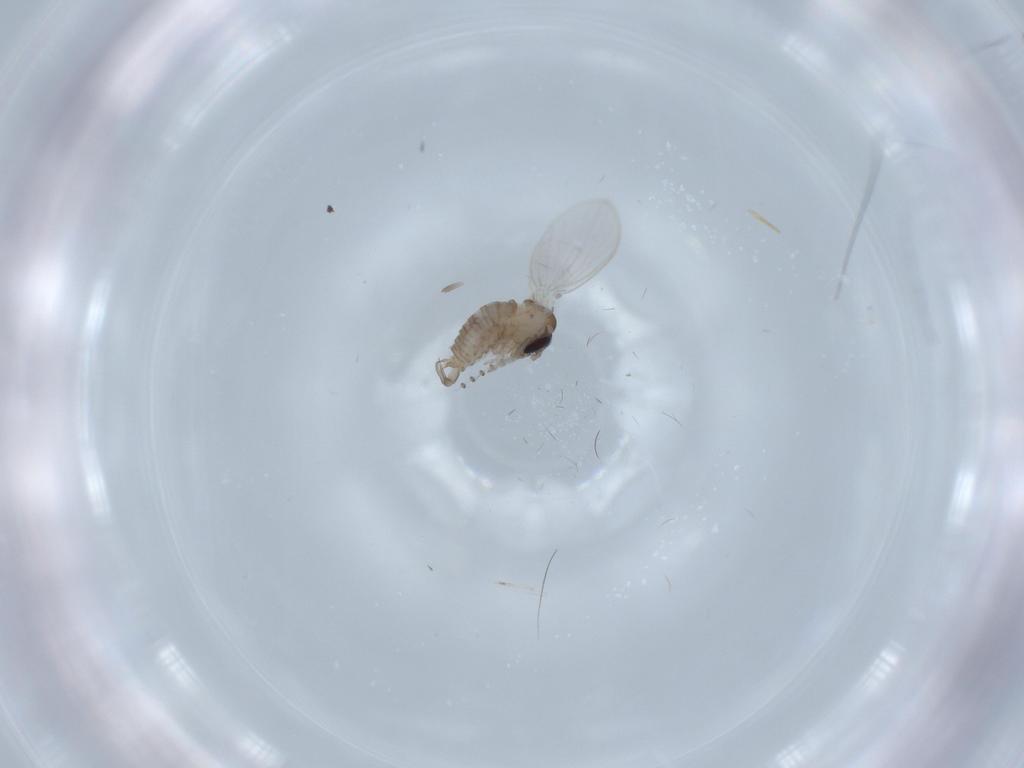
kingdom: Animalia
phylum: Arthropoda
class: Insecta
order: Diptera
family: Psychodidae
